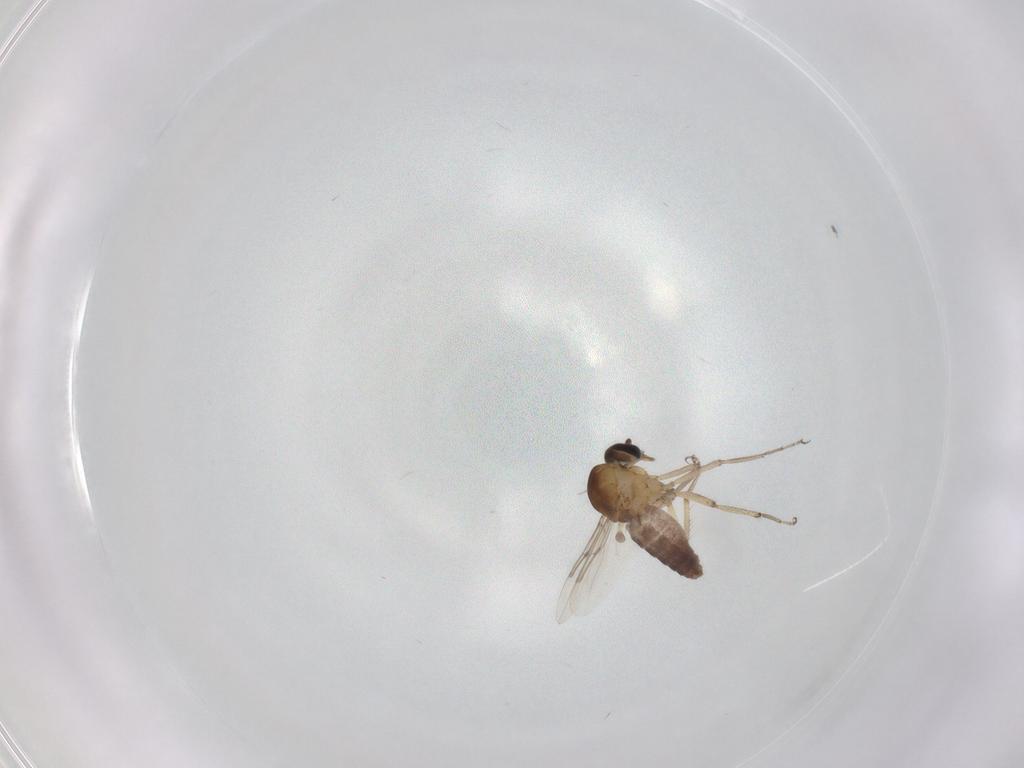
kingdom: Animalia
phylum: Arthropoda
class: Insecta
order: Diptera
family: Ceratopogonidae
